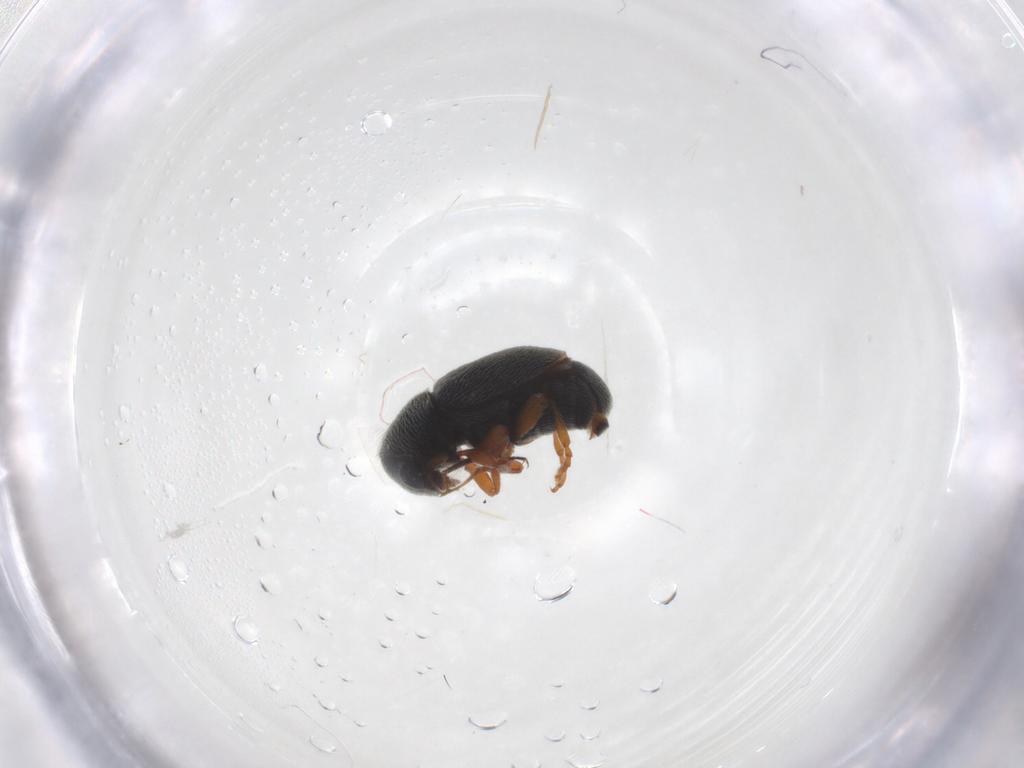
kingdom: Animalia
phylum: Arthropoda
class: Insecta
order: Coleoptera
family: Anthribidae
